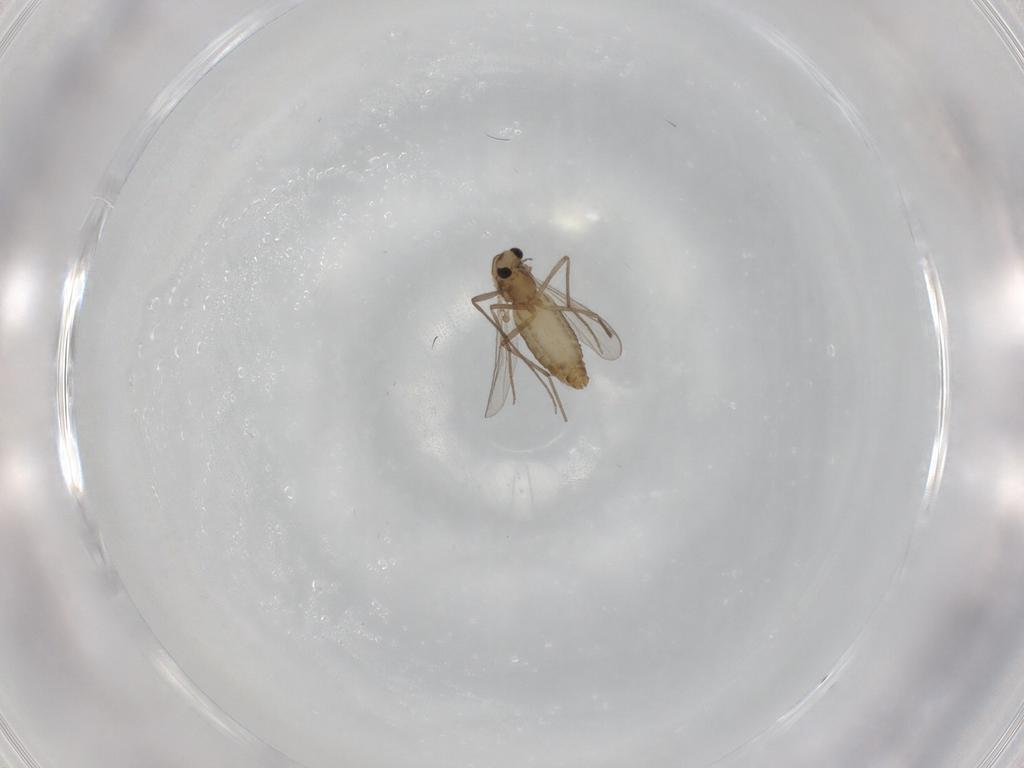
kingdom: Animalia
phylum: Arthropoda
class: Insecta
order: Diptera
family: Chironomidae
